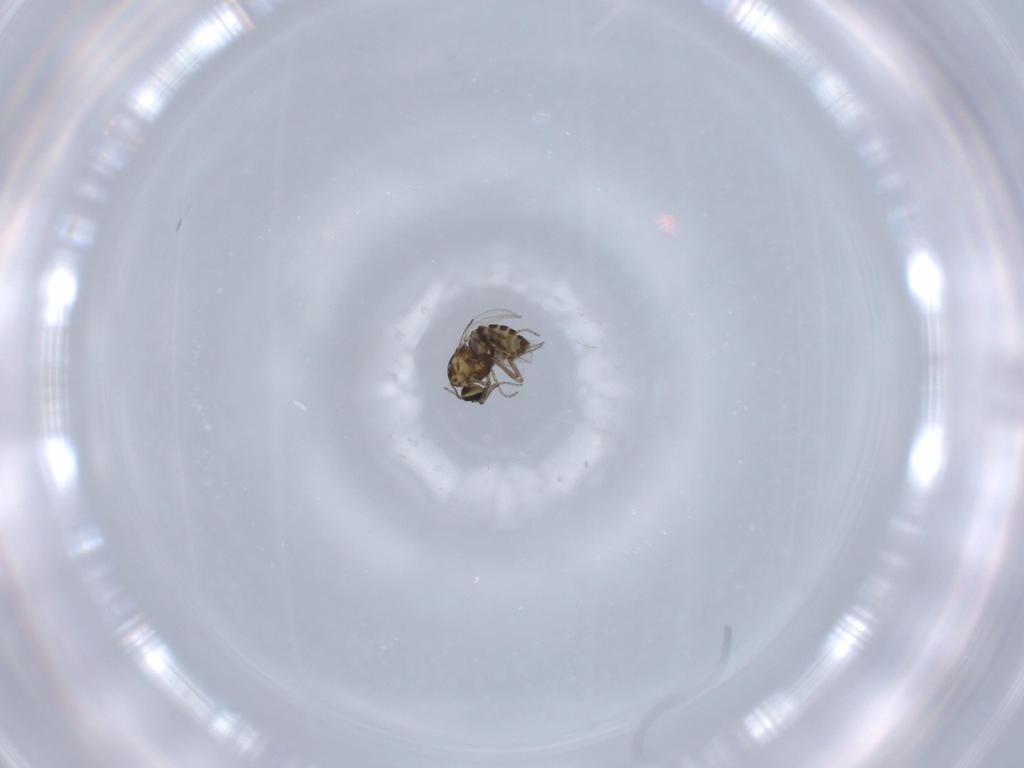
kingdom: Animalia
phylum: Arthropoda
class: Insecta
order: Diptera
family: Ceratopogonidae
